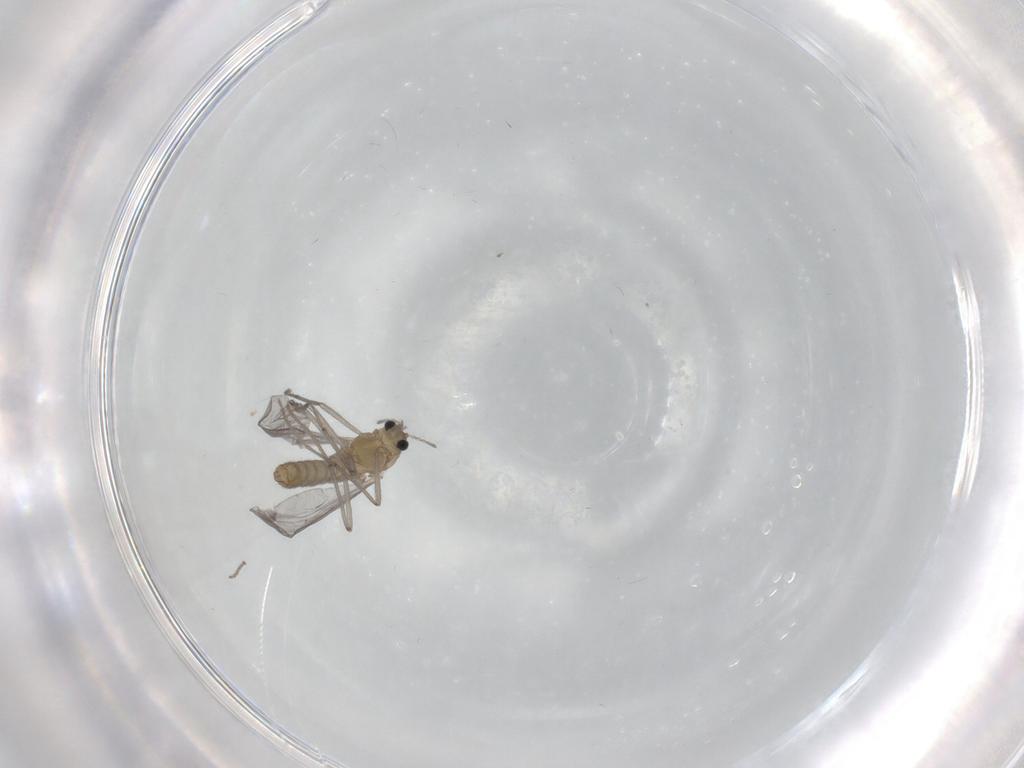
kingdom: Animalia
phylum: Arthropoda
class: Insecta
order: Diptera
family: Chironomidae
